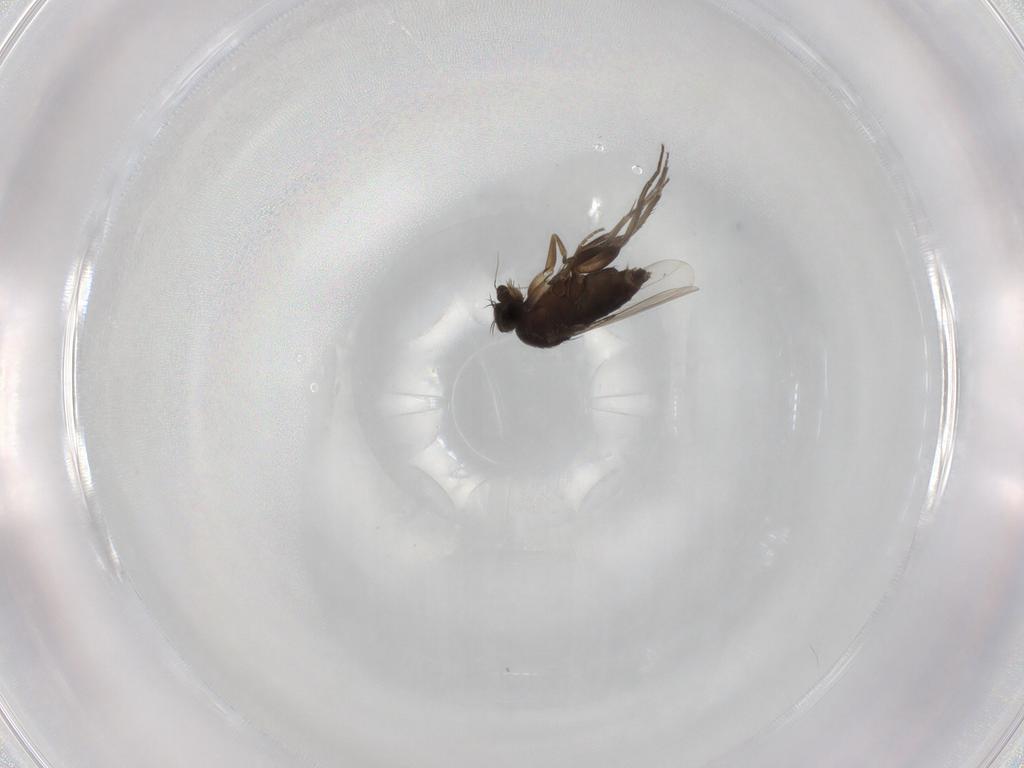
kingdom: Animalia
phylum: Arthropoda
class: Insecta
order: Diptera
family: Phoridae
